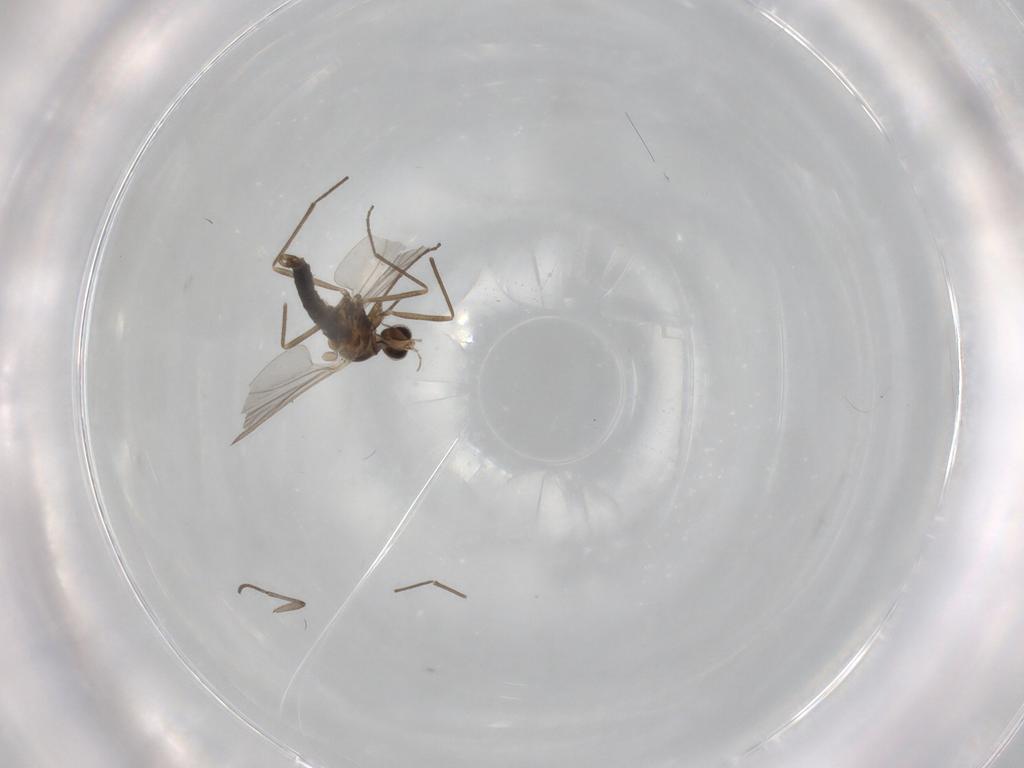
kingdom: Animalia
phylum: Arthropoda
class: Insecta
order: Diptera
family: Cecidomyiidae
